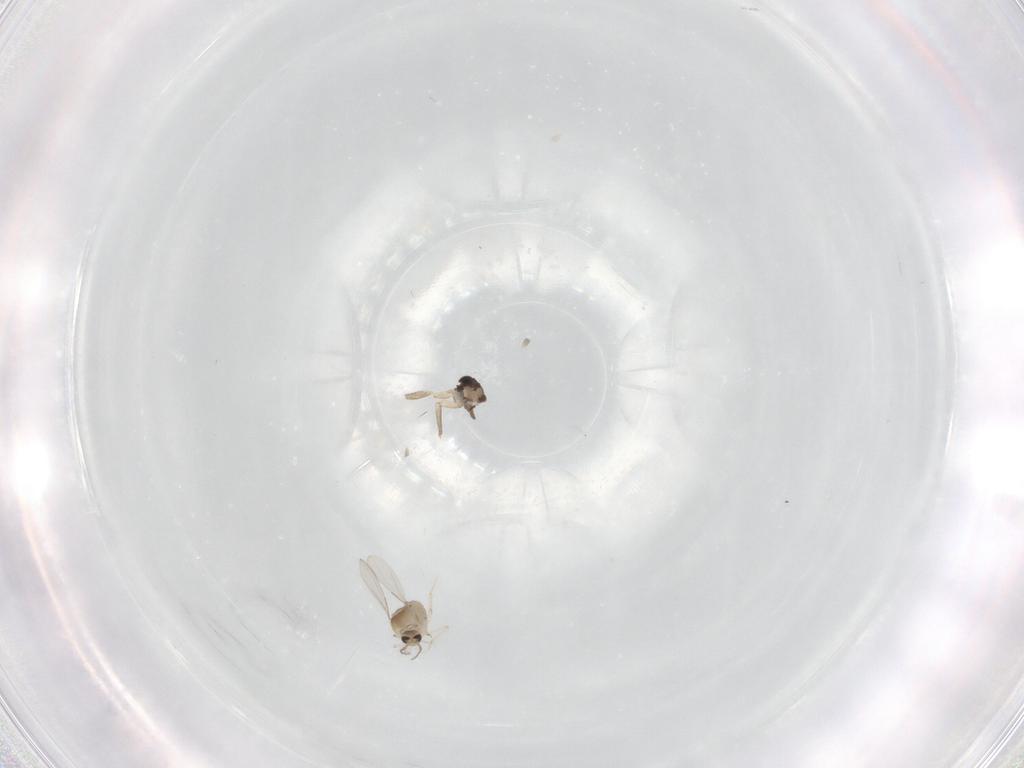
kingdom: Animalia
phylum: Arthropoda
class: Insecta
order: Diptera
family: Ceratopogonidae
